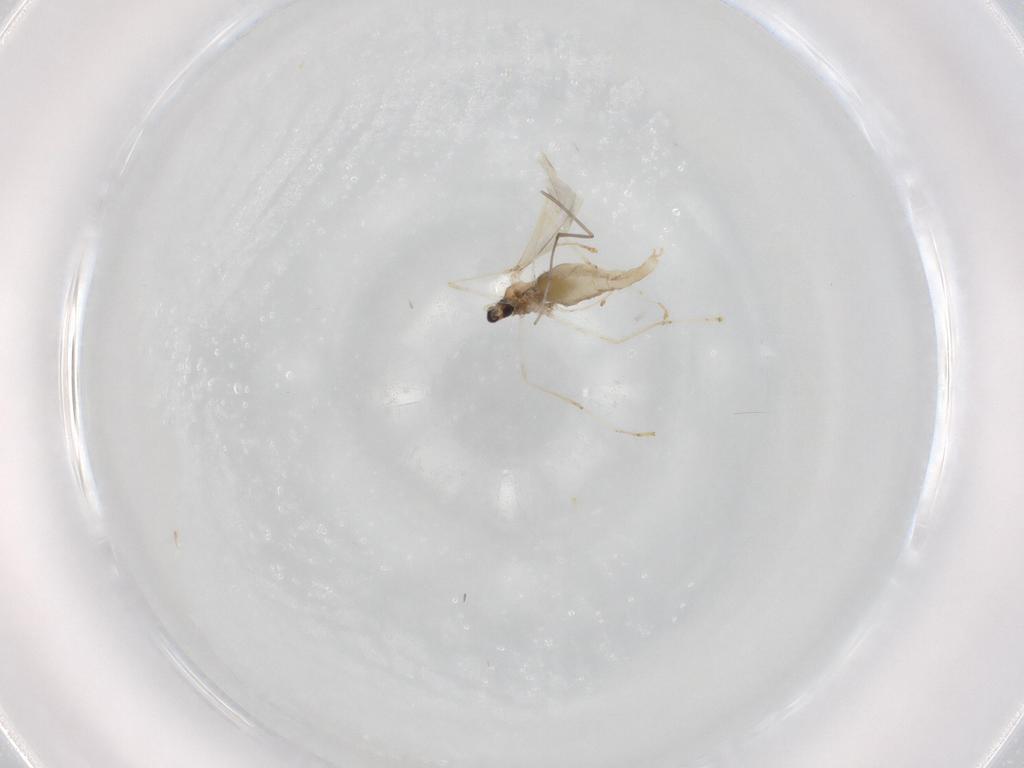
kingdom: Animalia
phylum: Arthropoda
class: Insecta
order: Diptera
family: Cecidomyiidae
